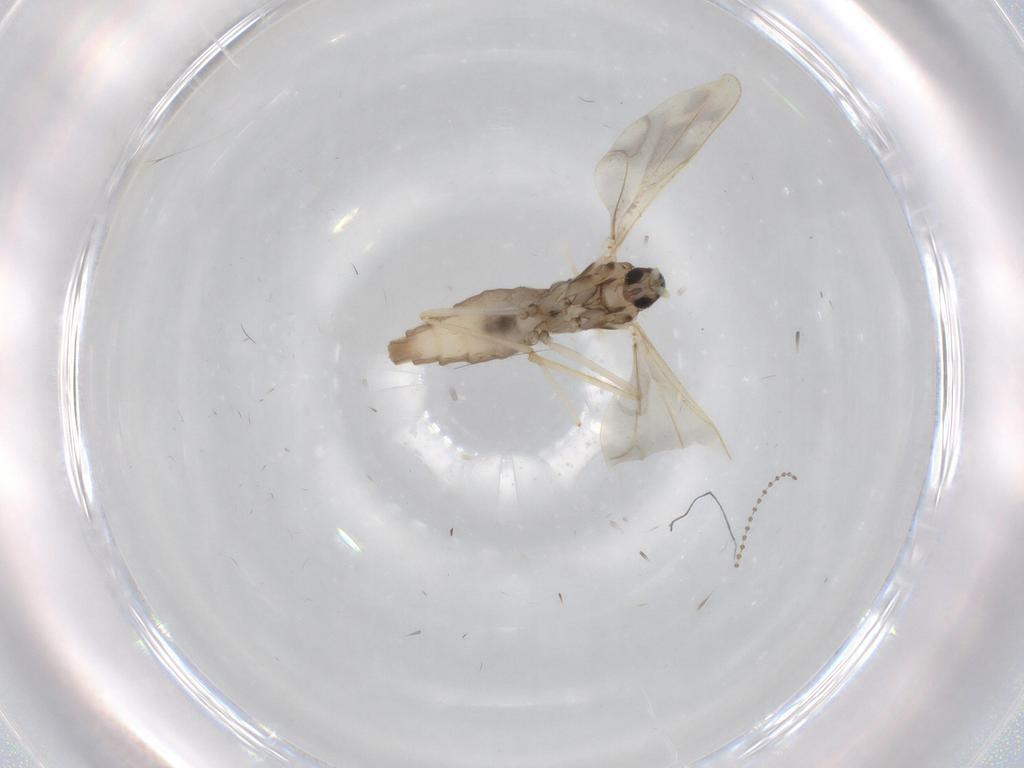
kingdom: Animalia
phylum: Arthropoda
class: Insecta
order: Diptera
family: Cecidomyiidae
